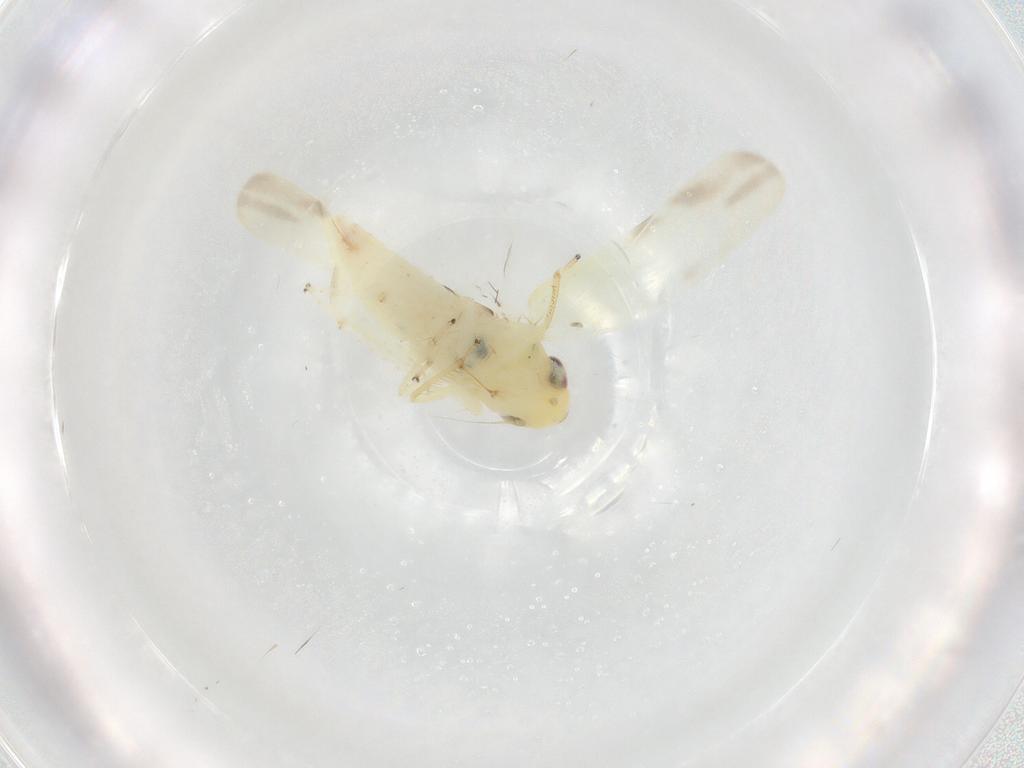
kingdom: Animalia
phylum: Arthropoda
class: Insecta
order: Hemiptera
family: Cicadellidae
